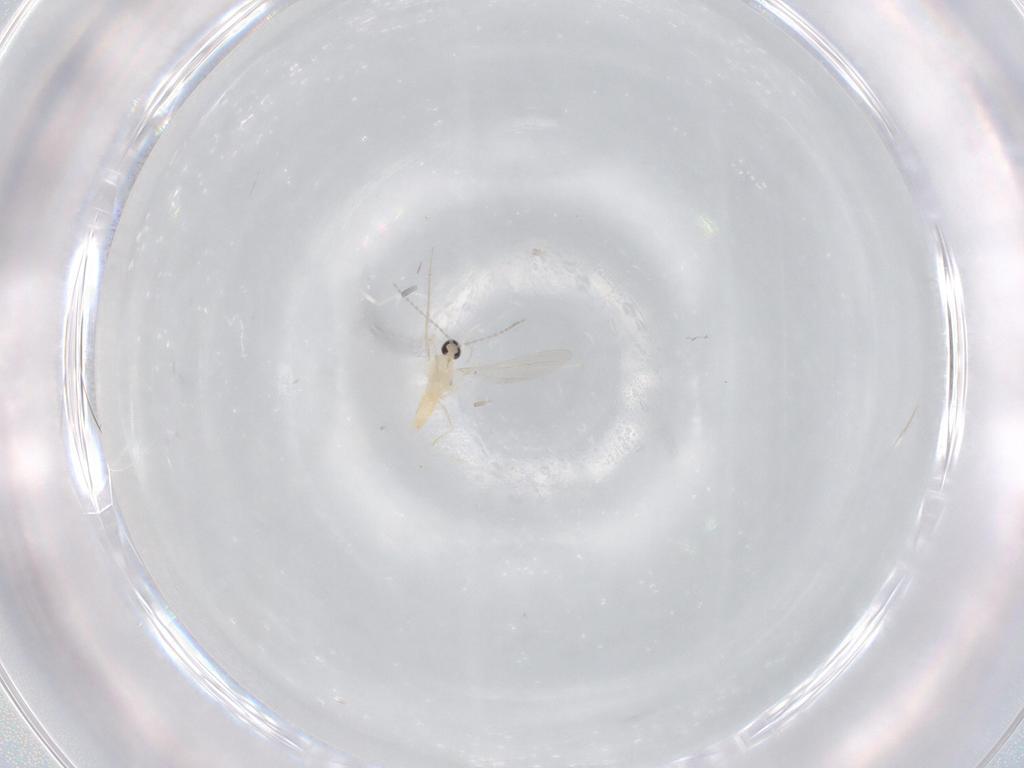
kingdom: Animalia
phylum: Arthropoda
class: Insecta
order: Diptera
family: Cecidomyiidae
